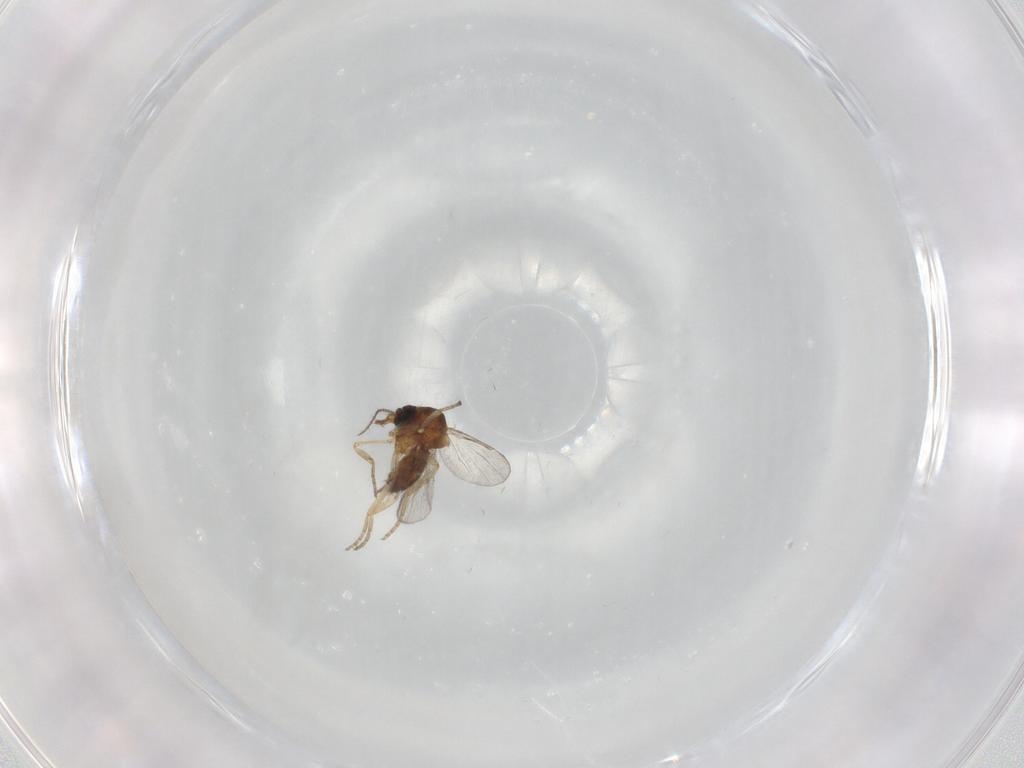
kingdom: Animalia
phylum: Arthropoda
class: Insecta
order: Diptera
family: Ceratopogonidae
